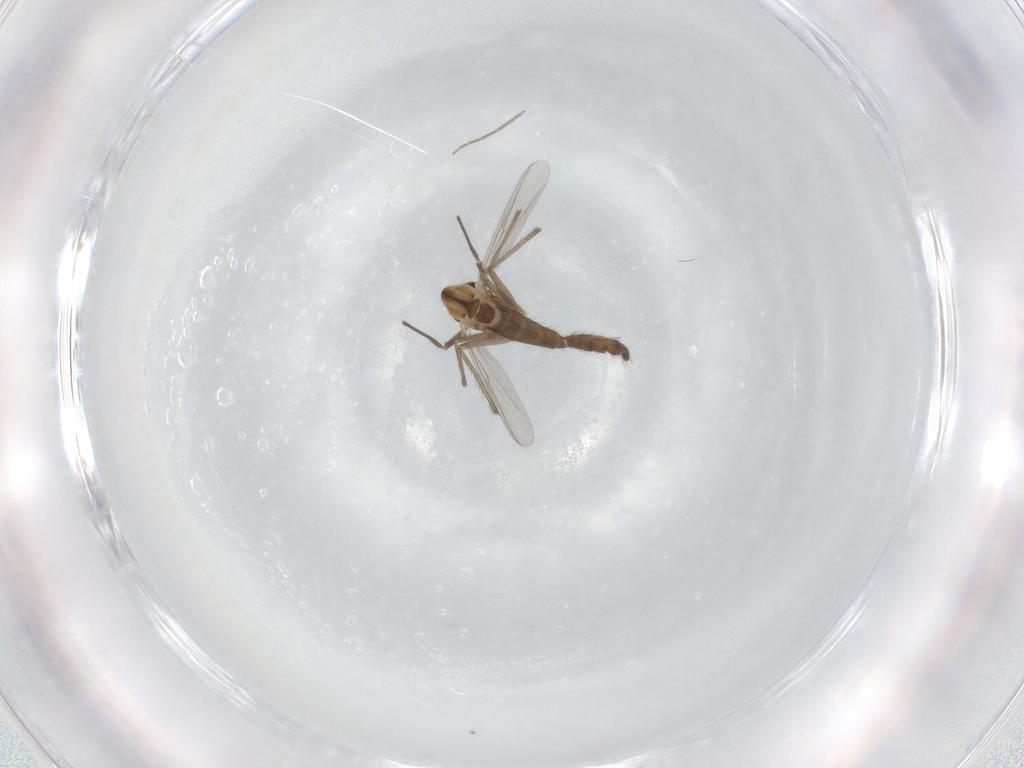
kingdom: Animalia
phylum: Arthropoda
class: Insecta
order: Diptera
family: Chironomidae
